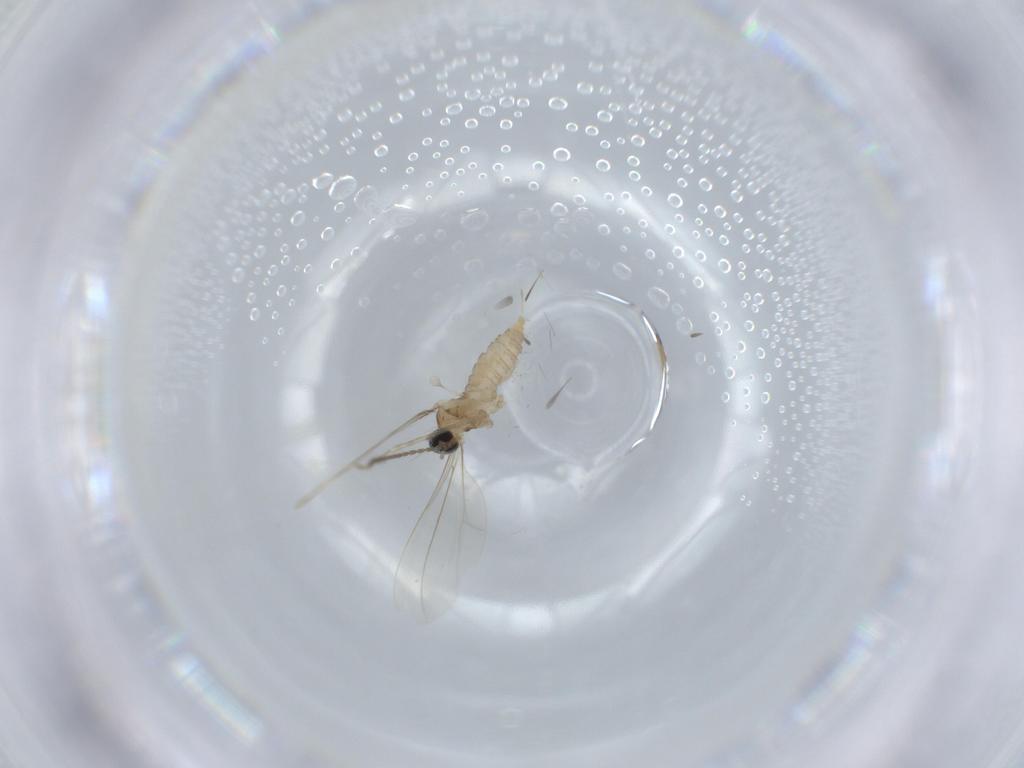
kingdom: Animalia
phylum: Arthropoda
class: Insecta
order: Diptera
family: Cecidomyiidae
